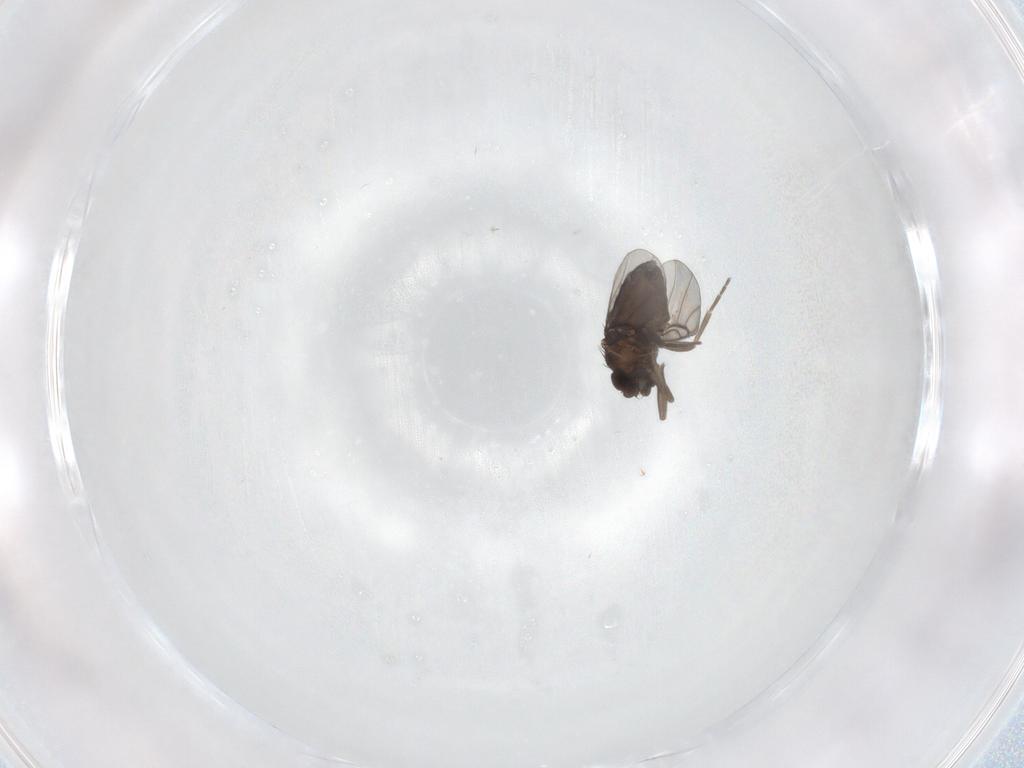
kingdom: Animalia
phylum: Arthropoda
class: Insecta
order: Diptera
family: Phoridae
